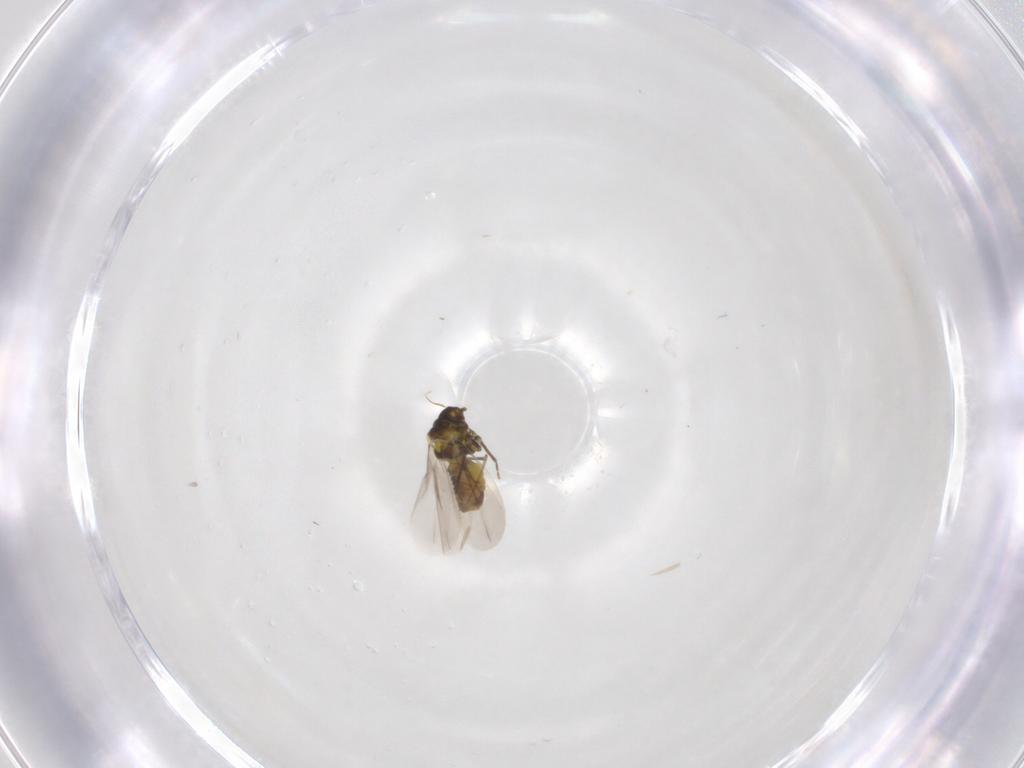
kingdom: Animalia
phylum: Arthropoda
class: Insecta
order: Hemiptera
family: Aleyrodidae
